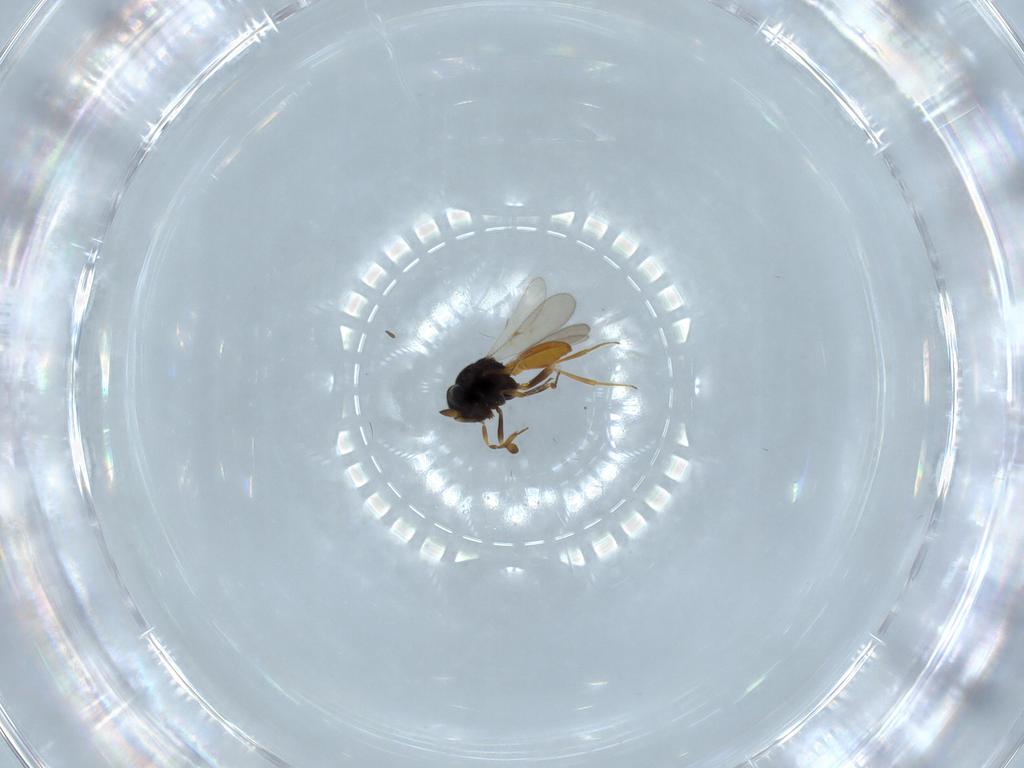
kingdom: Animalia
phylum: Arthropoda
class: Insecta
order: Hymenoptera
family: Scelionidae
